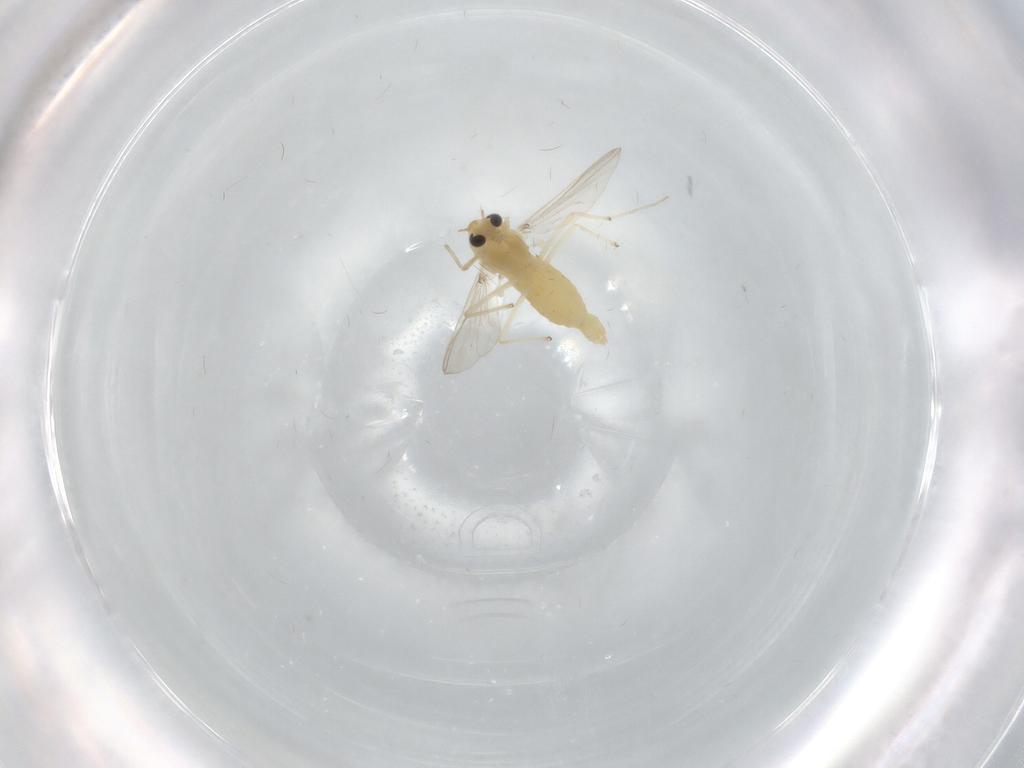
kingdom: Animalia
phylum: Arthropoda
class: Insecta
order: Diptera
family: Chironomidae
